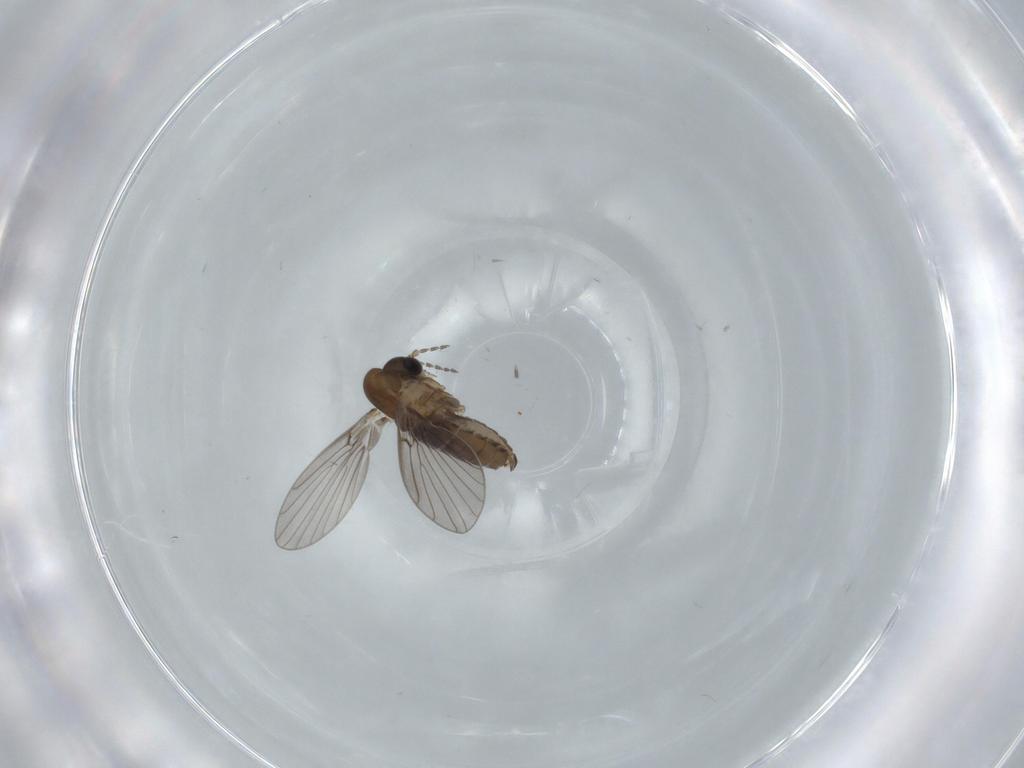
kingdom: Animalia
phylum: Arthropoda
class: Insecta
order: Diptera
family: Psychodidae
